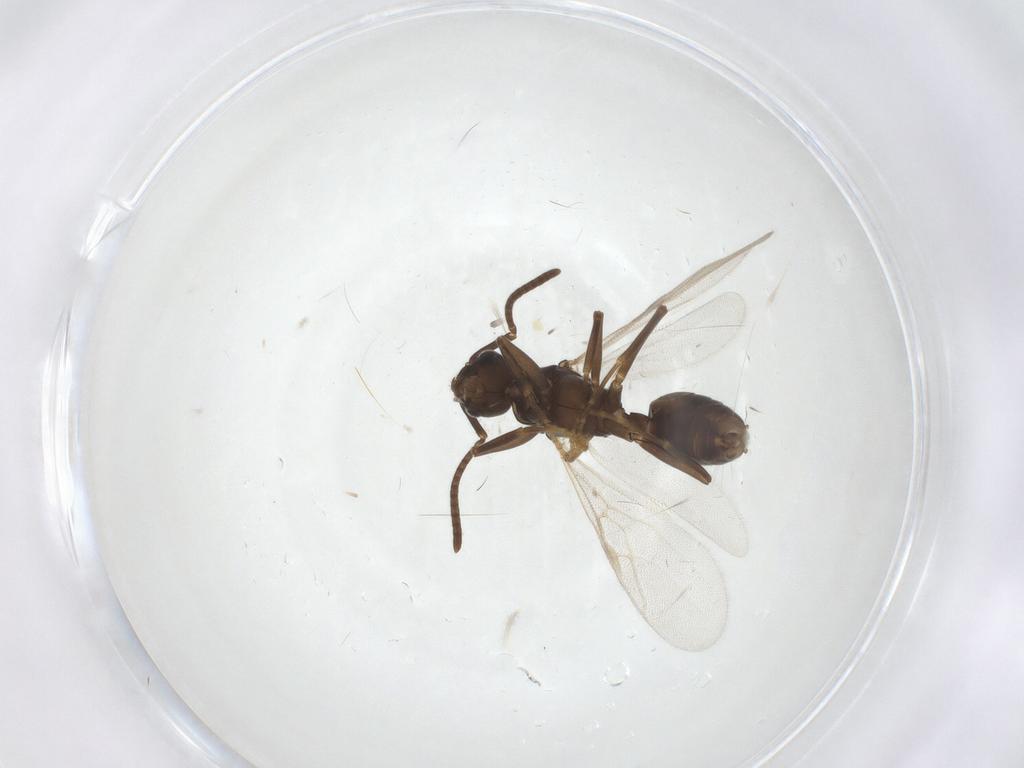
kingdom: Animalia
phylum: Arthropoda
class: Insecta
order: Hymenoptera
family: Formicidae
